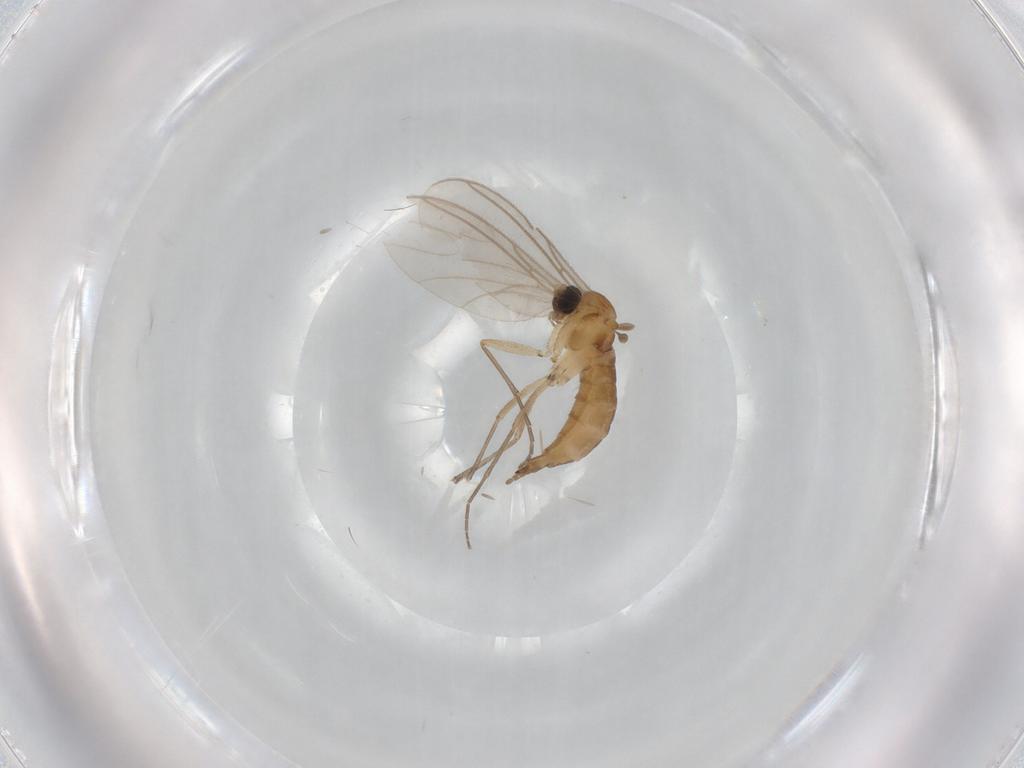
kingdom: Animalia
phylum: Arthropoda
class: Insecta
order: Diptera
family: Sciaridae
